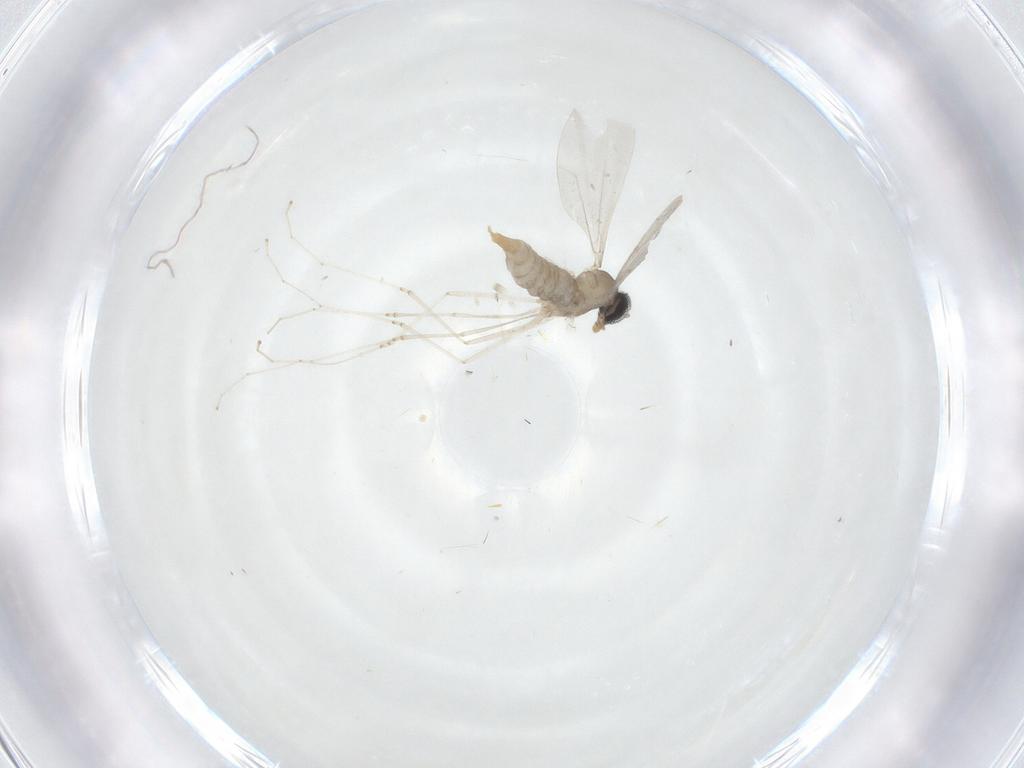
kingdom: Animalia
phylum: Arthropoda
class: Insecta
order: Diptera
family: Cecidomyiidae
